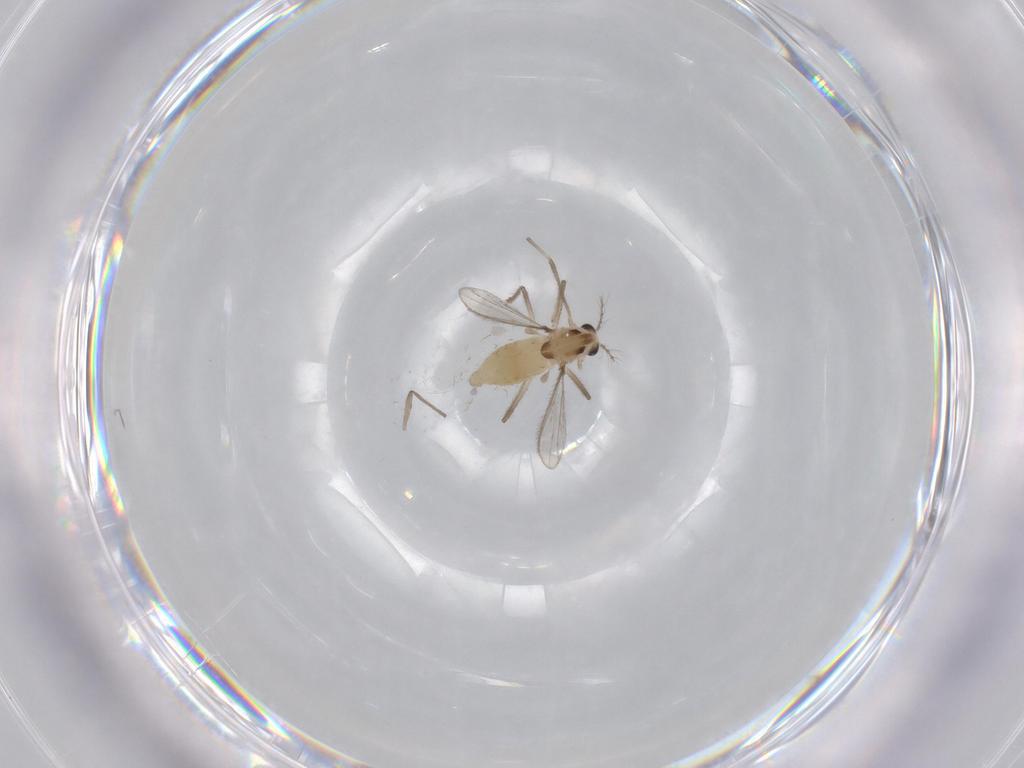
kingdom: Animalia
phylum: Arthropoda
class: Insecta
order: Diptera
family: Chironomidae
